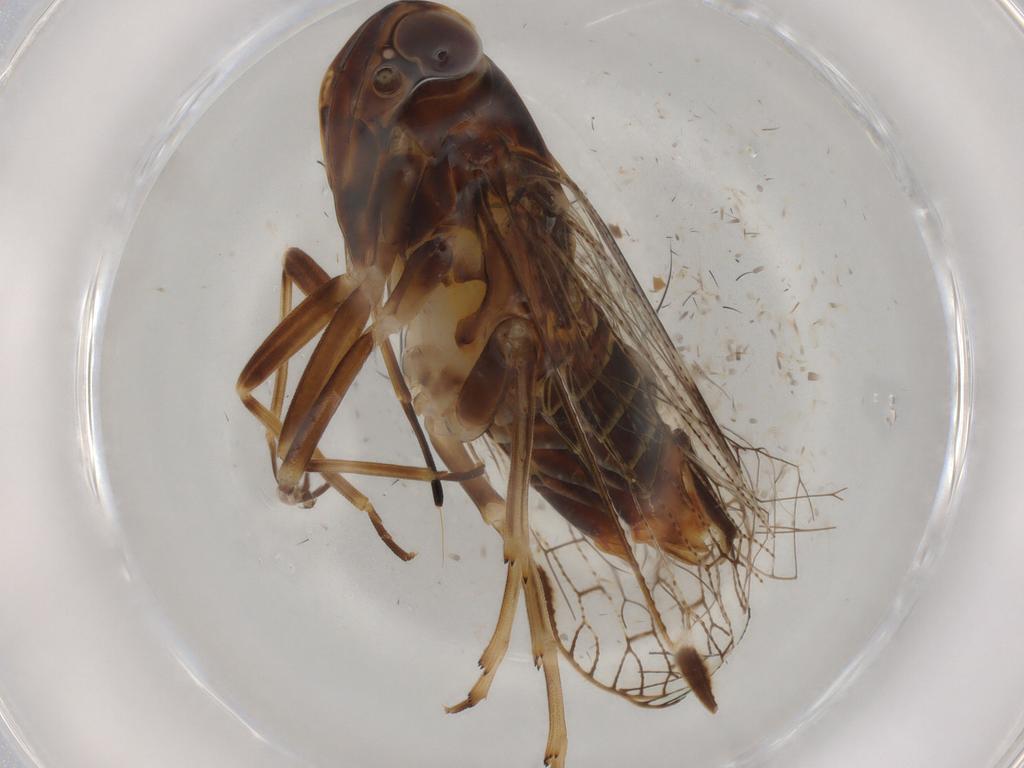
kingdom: Animalia
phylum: Arthropoda
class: Insecta
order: Hemiptera
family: Cixiidae
